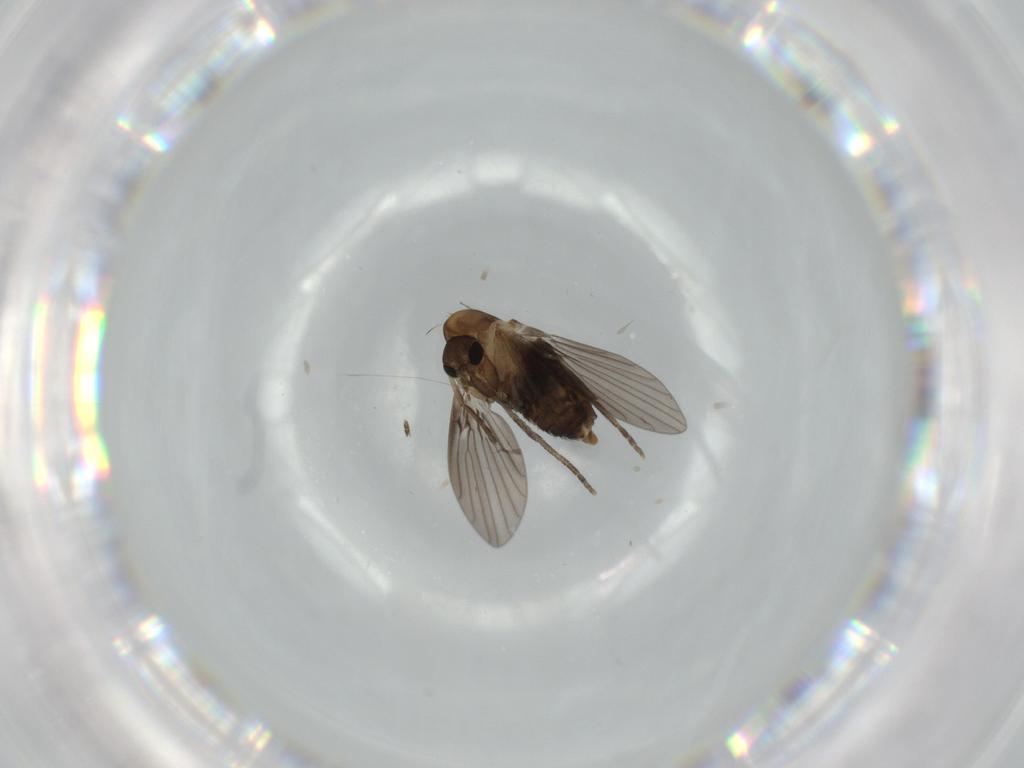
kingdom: Animalia
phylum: Arthropoda
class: Insecta
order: Diptera
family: Psychodidae
